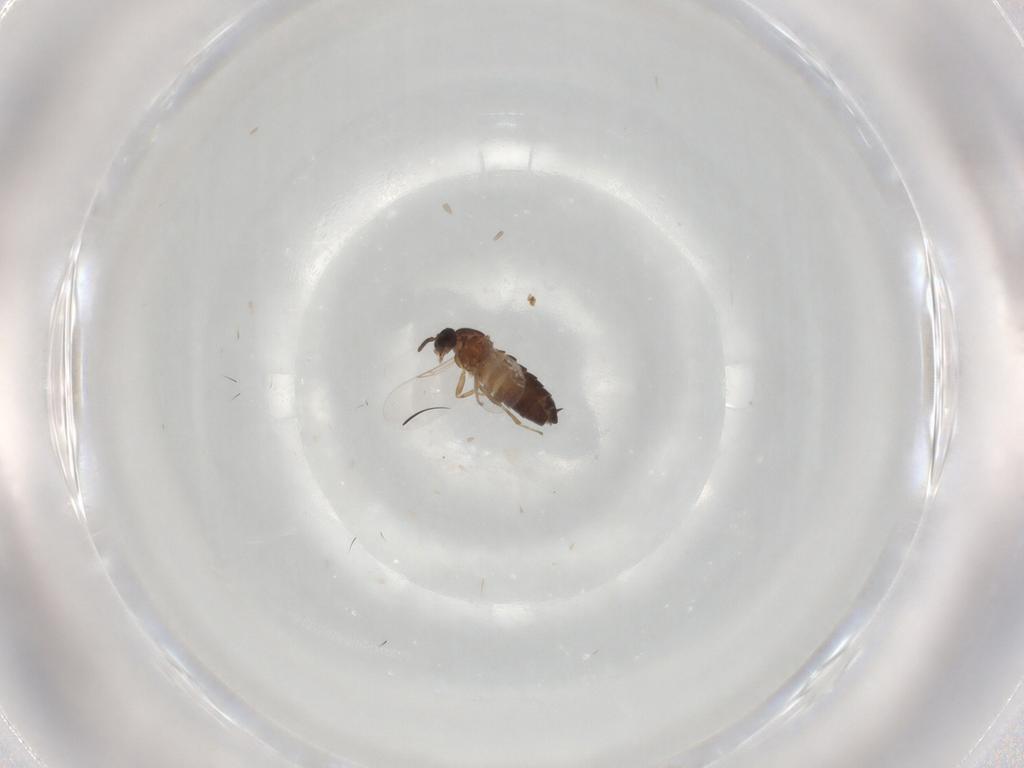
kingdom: Animalia
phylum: Arthropoda
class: Insecta
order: Diptera
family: Scatopsidae
